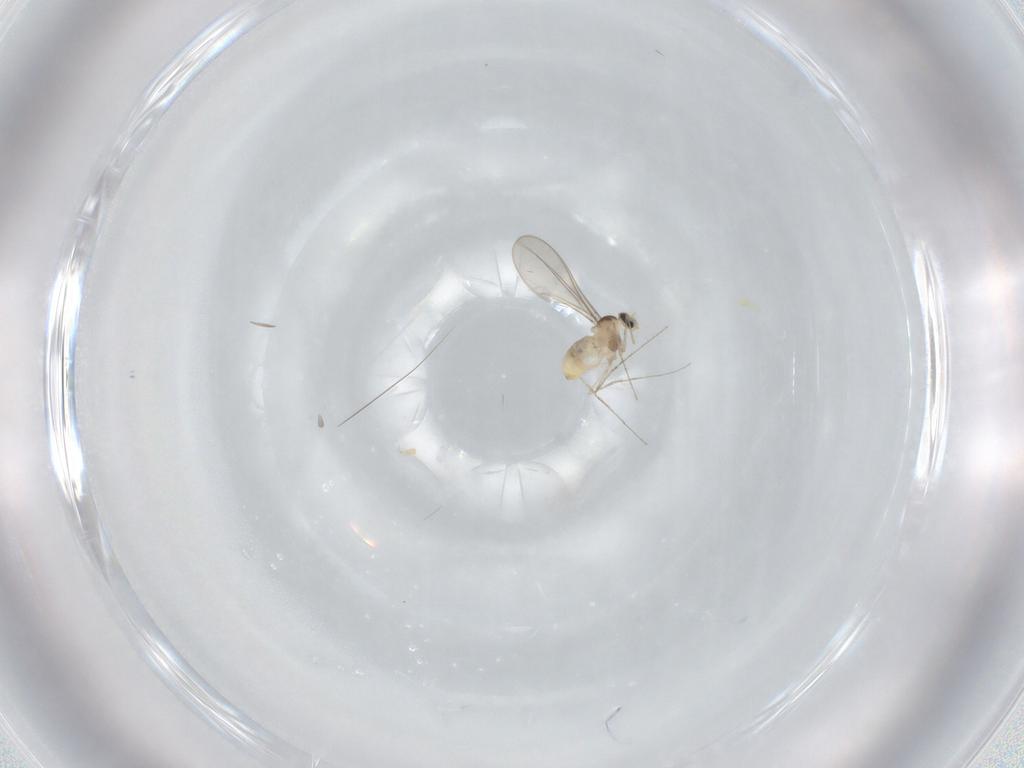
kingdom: Animalia
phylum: Arthropoda
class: Insecta
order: Diptera
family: Cecidomyiidae
